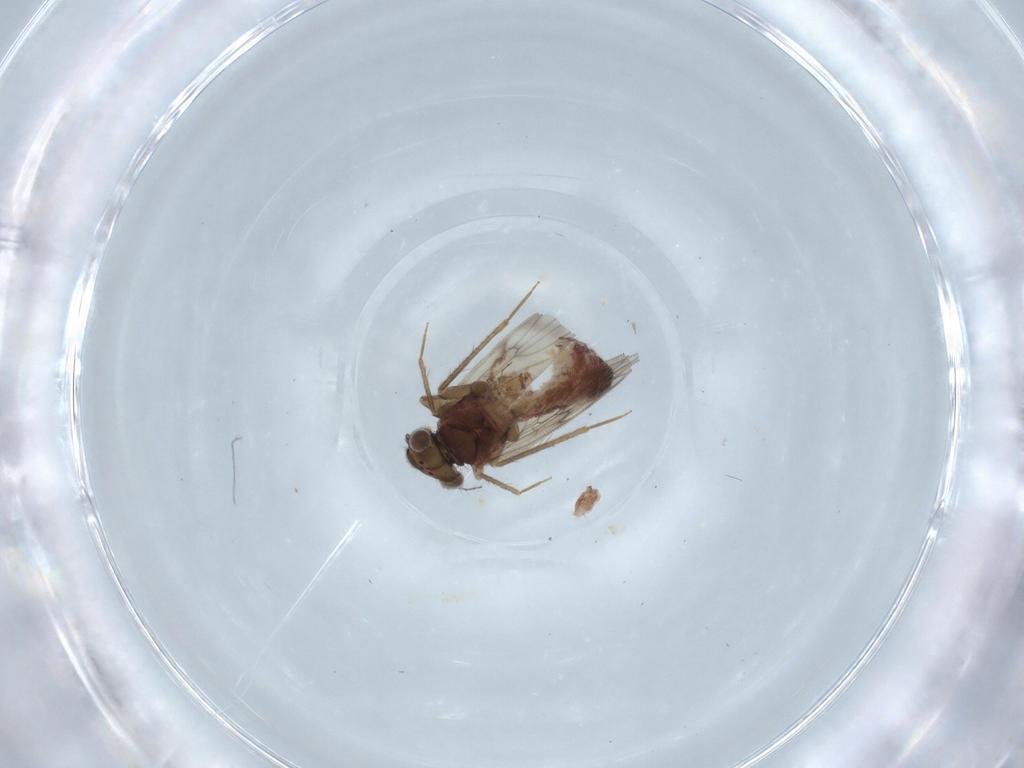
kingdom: Animalia
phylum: Arthropoda
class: Insecta
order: Psocodea
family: Lepidopsocidae
